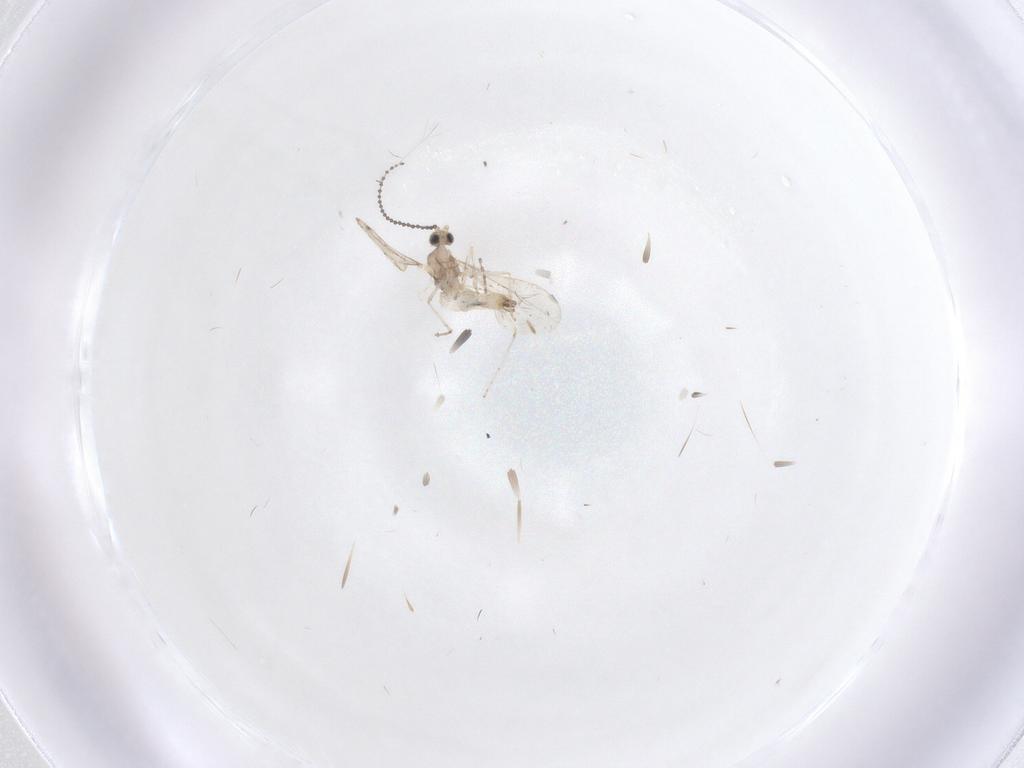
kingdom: Animalia
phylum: Arthropoda
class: Insecta
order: Diptera
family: Cecidomyiidae
